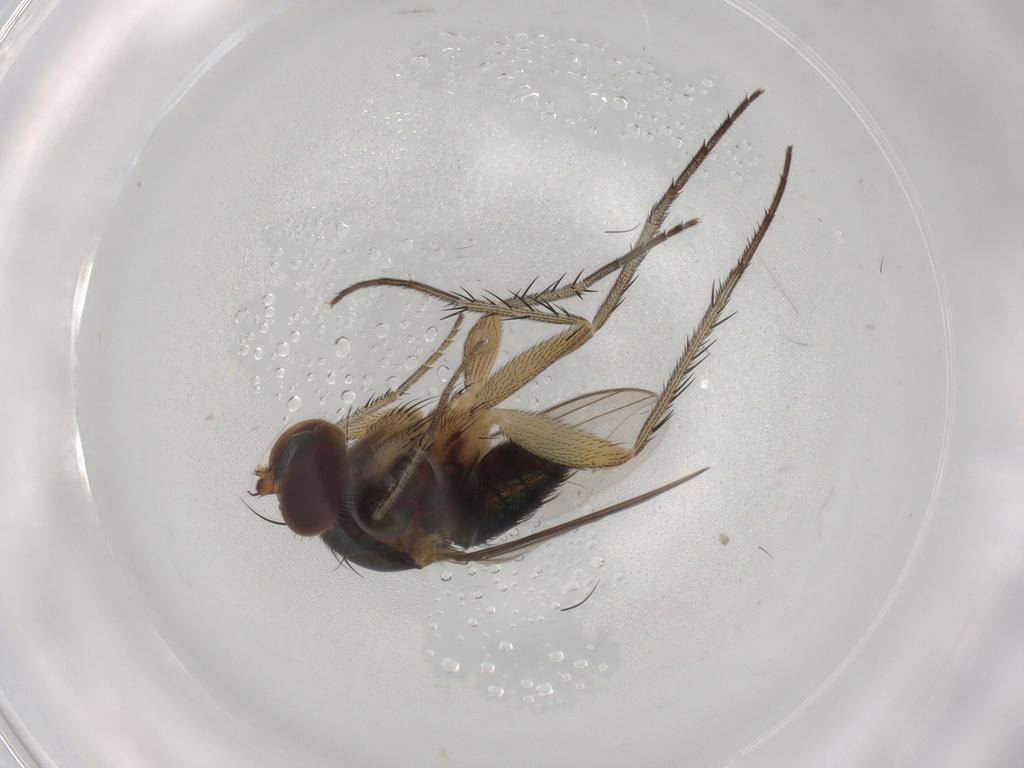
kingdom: Animalia
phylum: Arthropoda
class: Insecta
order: Diptera
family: Dolichopodidae
